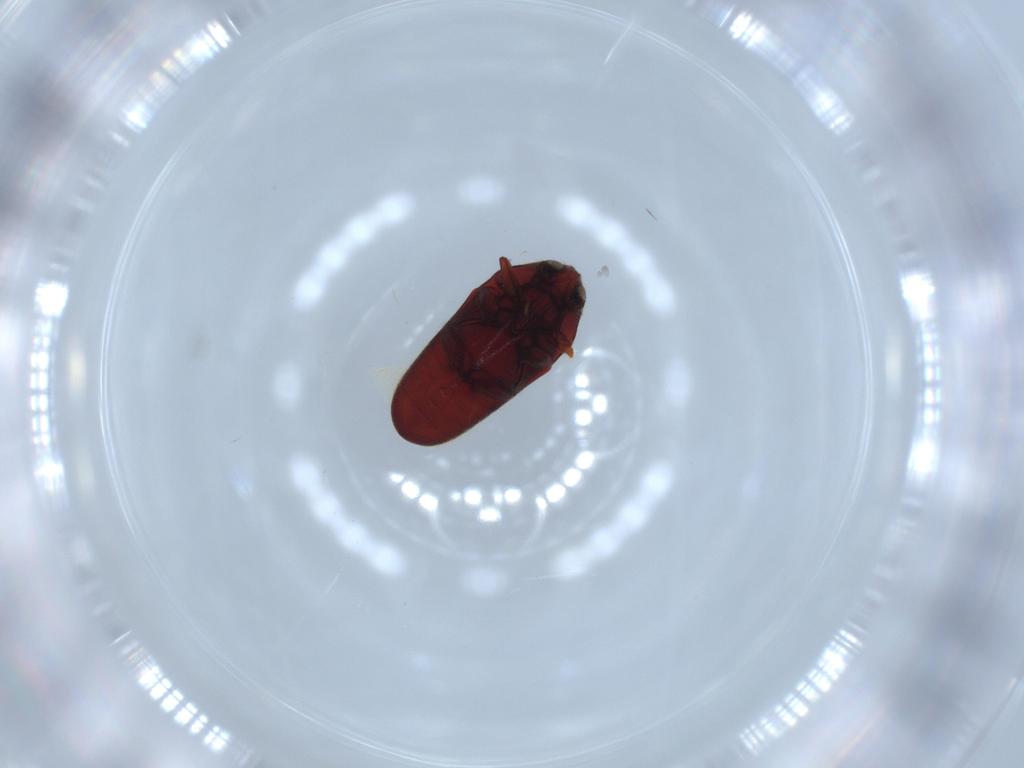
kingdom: Animalia
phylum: Arthropoda
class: Insecta
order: Coleoptera
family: Throscidae
